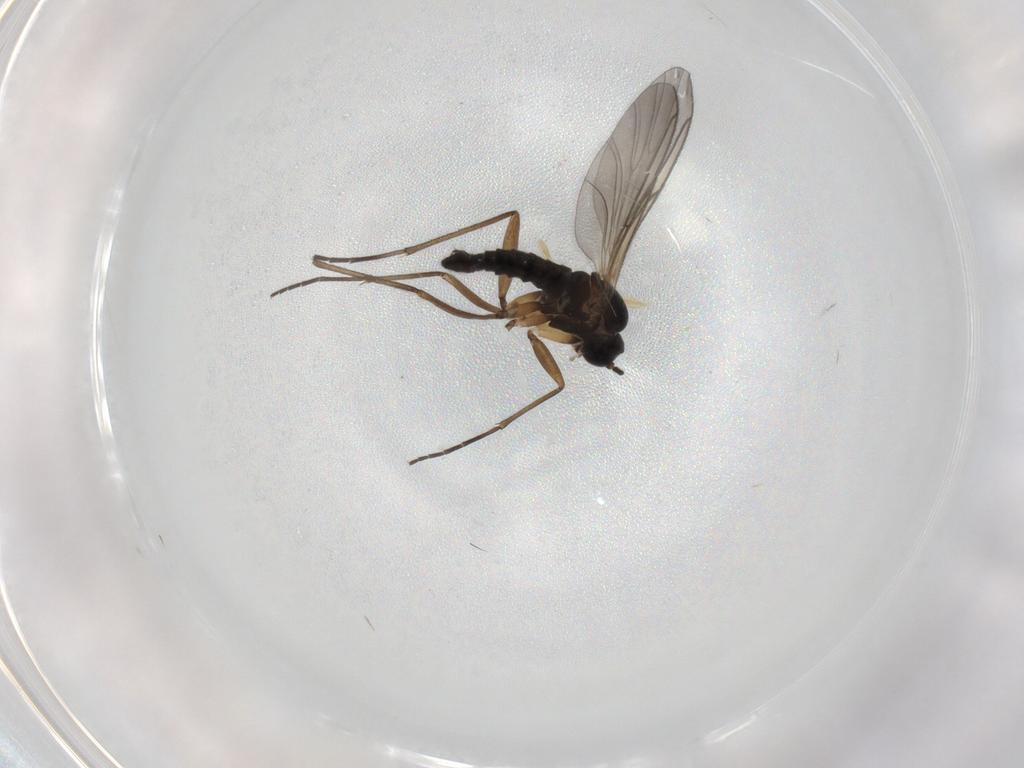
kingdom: Animalia
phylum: Arthropoda
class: Insecta
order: Diptera
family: Sciaridae
